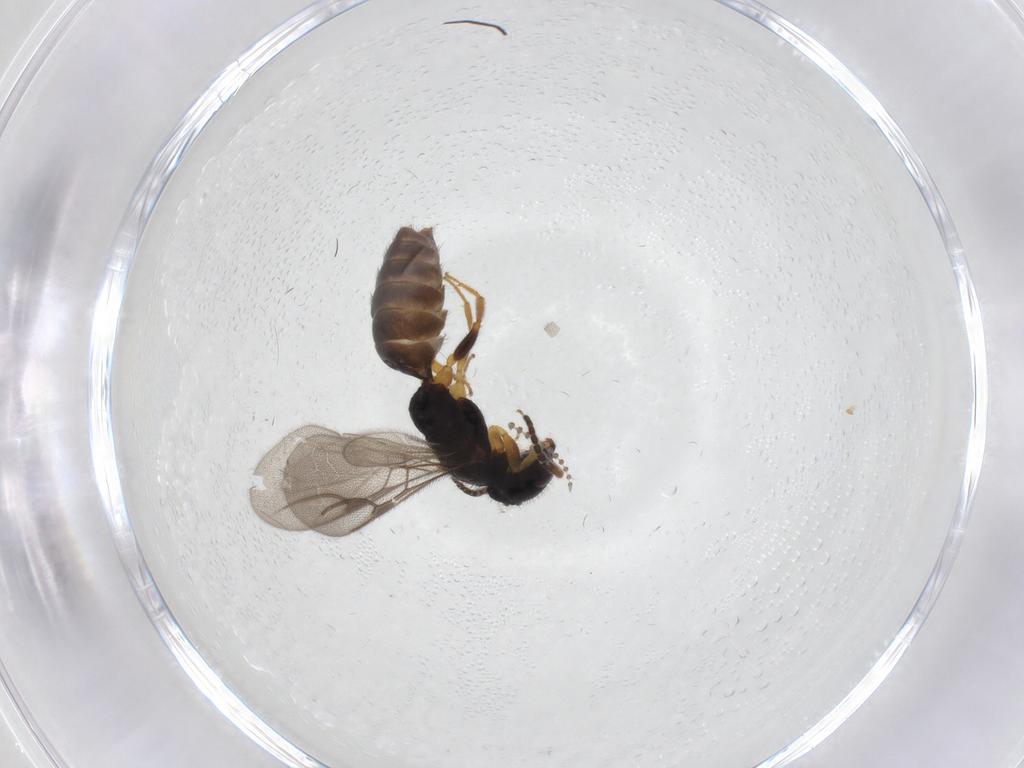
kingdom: Animalia
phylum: Arthropoda
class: Insecta
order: Hymenoptera
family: Bethylidae
